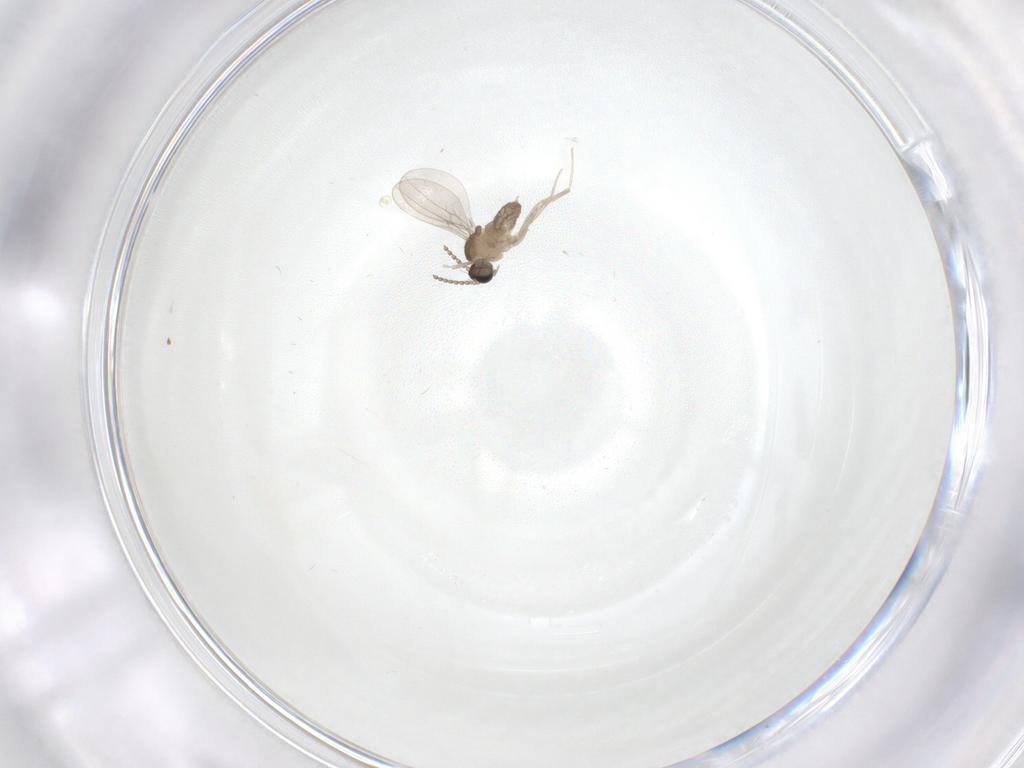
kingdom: Animalia
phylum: Arthropoda
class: Insecta
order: Diptera
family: Cecidomyiidae
